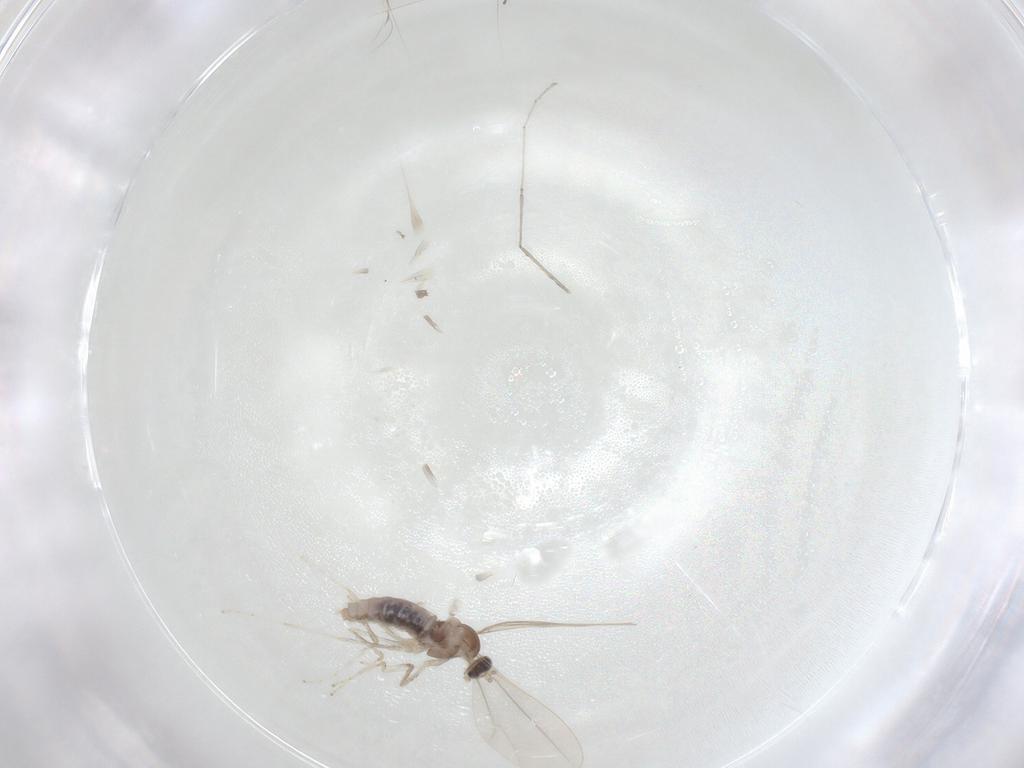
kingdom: Animalia
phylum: Arthropoda
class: Insecta
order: Diptera
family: Cecidomyiidae
